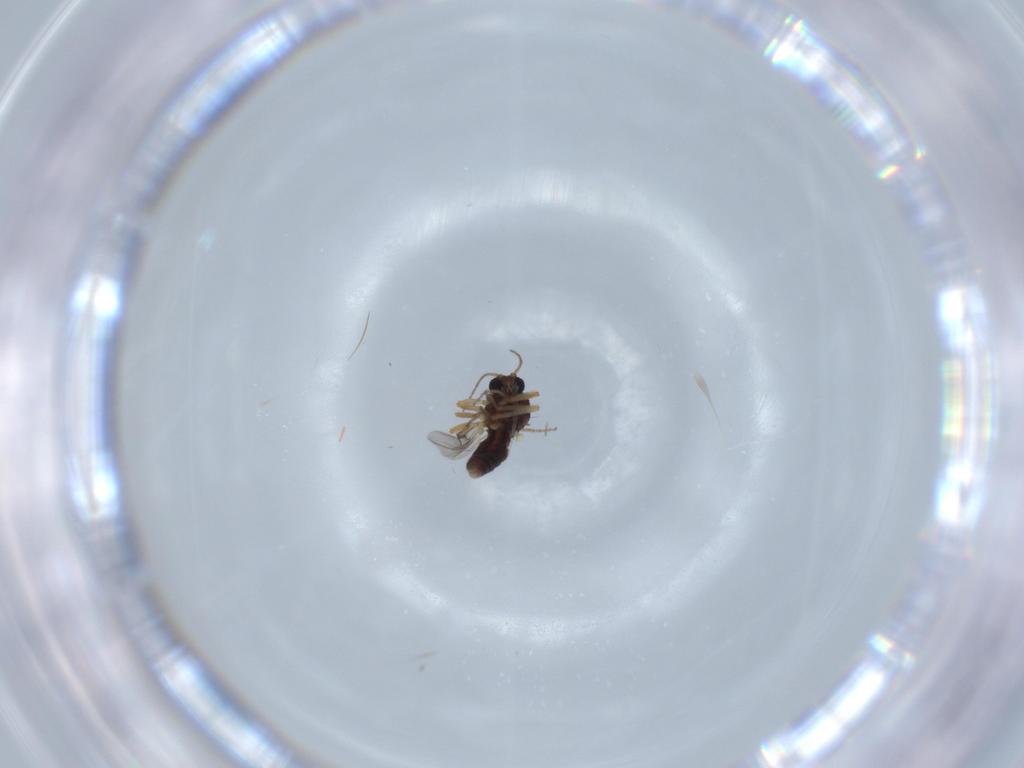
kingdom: Animalia
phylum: Arthropoda
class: Insecta
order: Diptera
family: Ceratopogonidae
